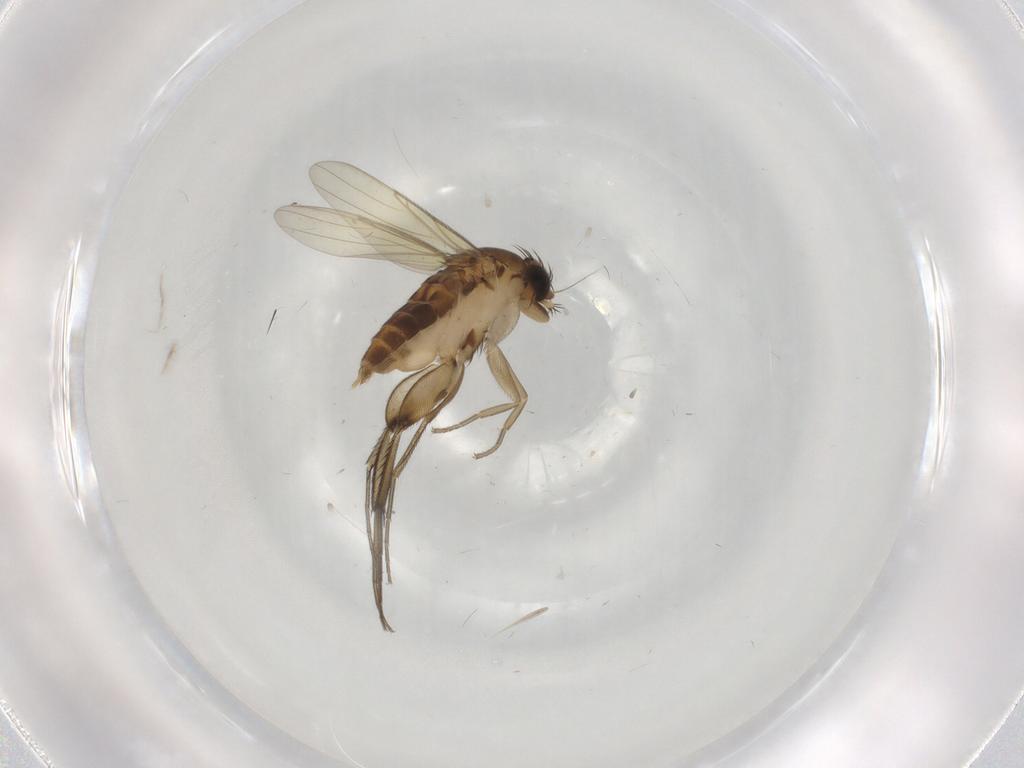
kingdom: Animalia
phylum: Arthropoda
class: Insecta
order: Diptera
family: Phoridae
